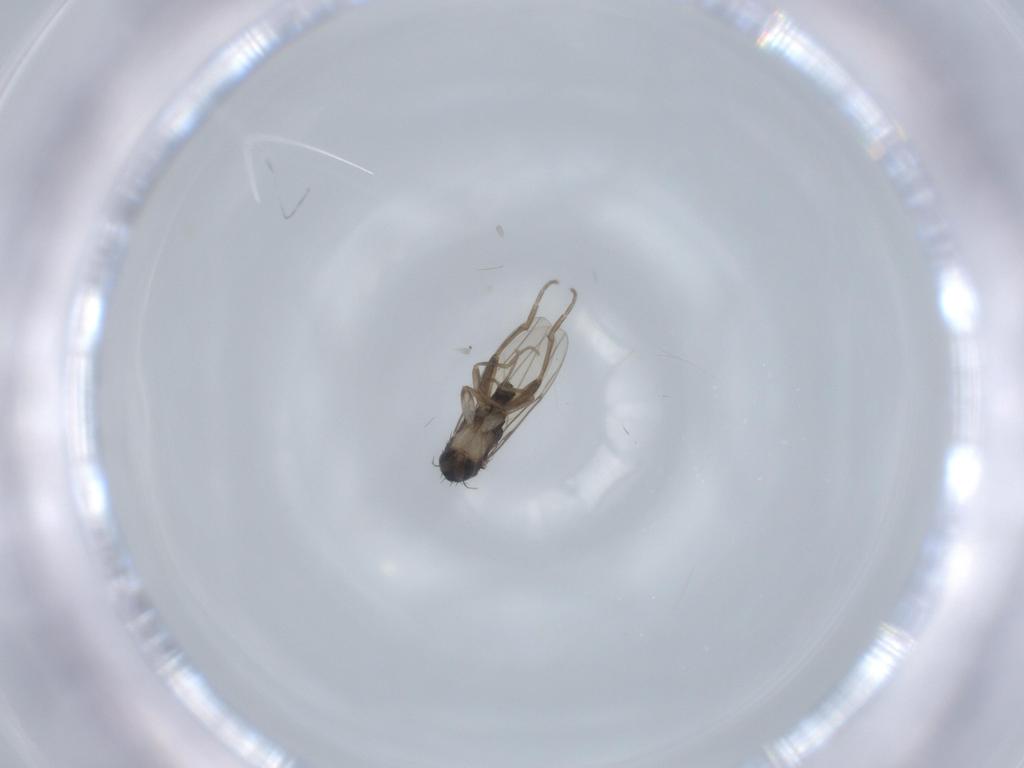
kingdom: Animalia
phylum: Arthropoda
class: Insecta
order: Diptera
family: Phoridae
